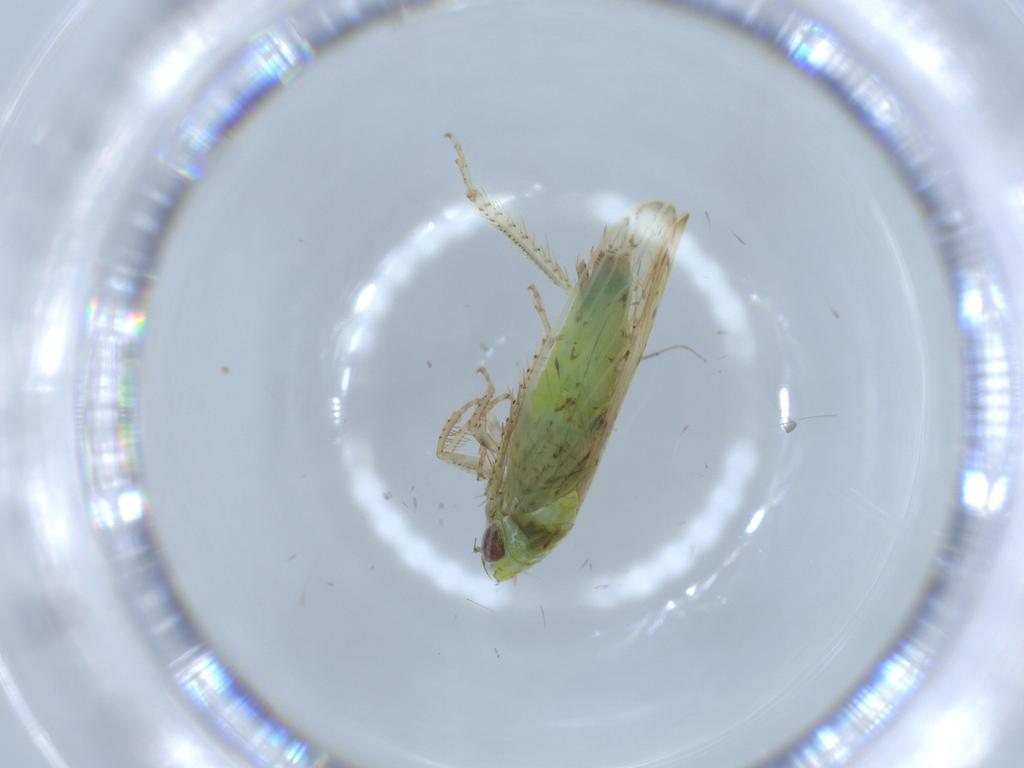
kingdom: Animalia
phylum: Arthropoda
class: Insecta
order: Hemiptera
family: Cicadellidae
